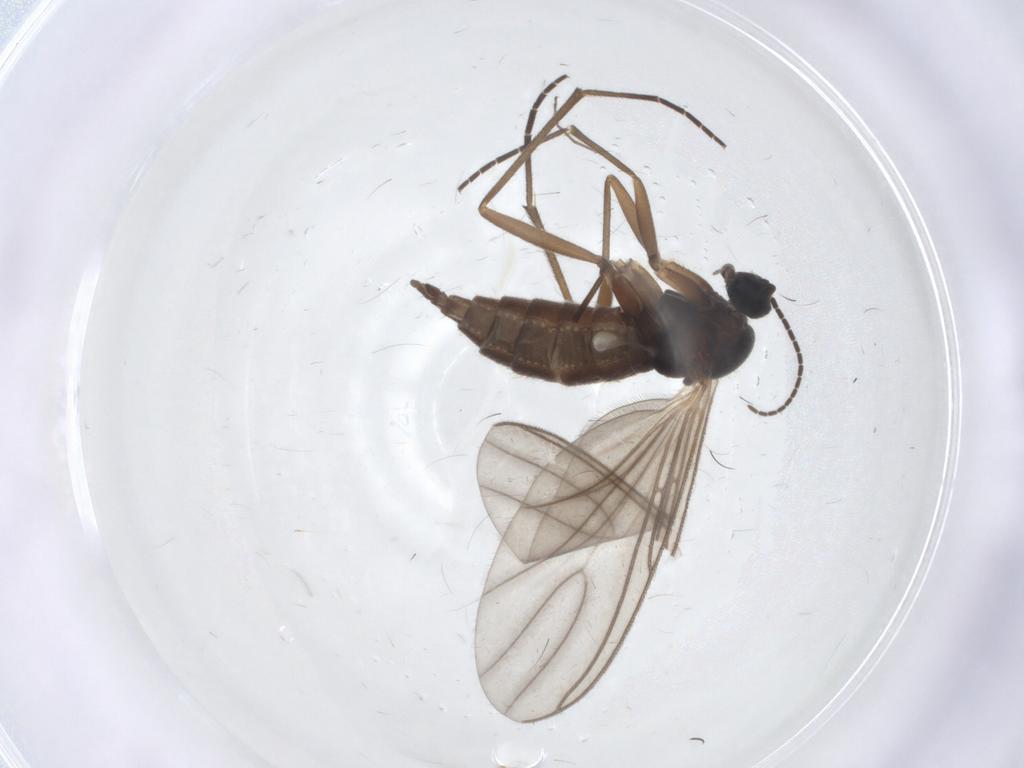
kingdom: Animalia
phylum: Arthropoda
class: Insecta
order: Diptera
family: Sciaridae
